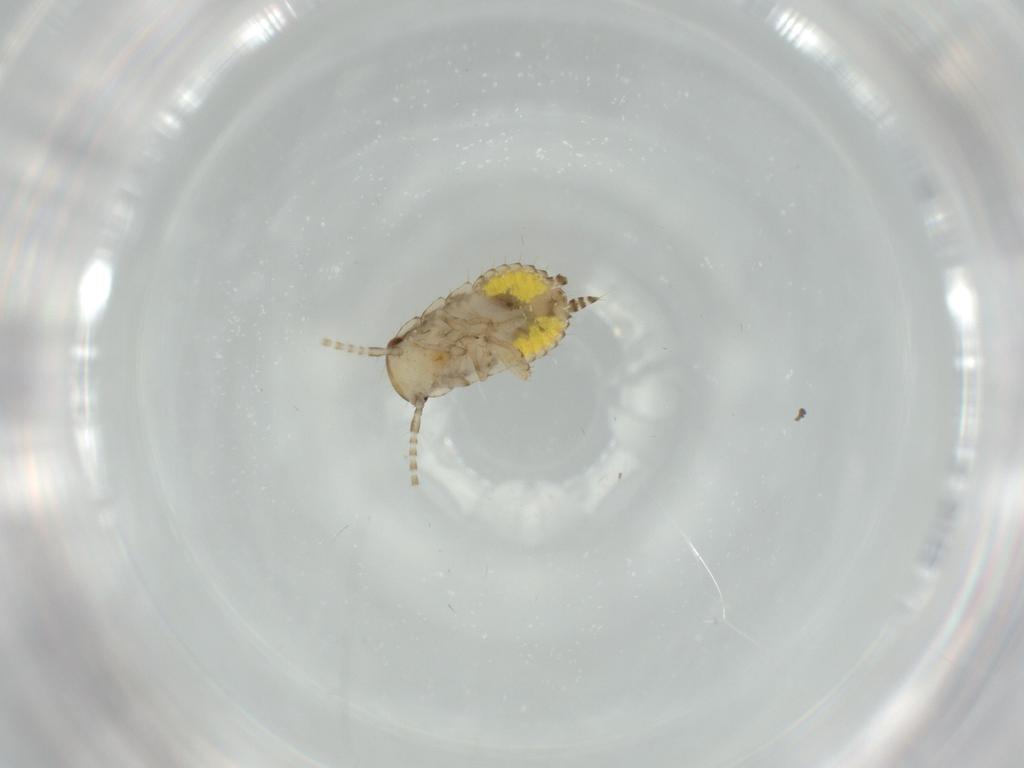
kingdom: Animalia
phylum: Arthropoda
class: Insecta
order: Blattodea
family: Ectobiidae
